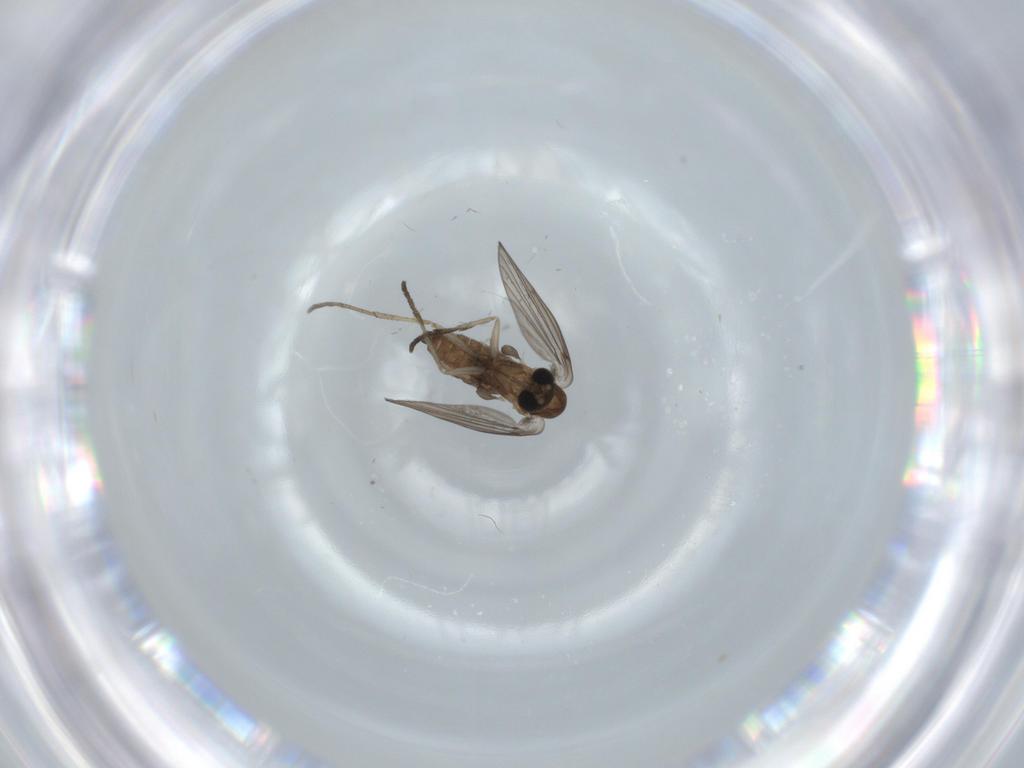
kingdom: Animalia
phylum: Arthropoda
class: Insecta
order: Diptera
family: Psychodidae
